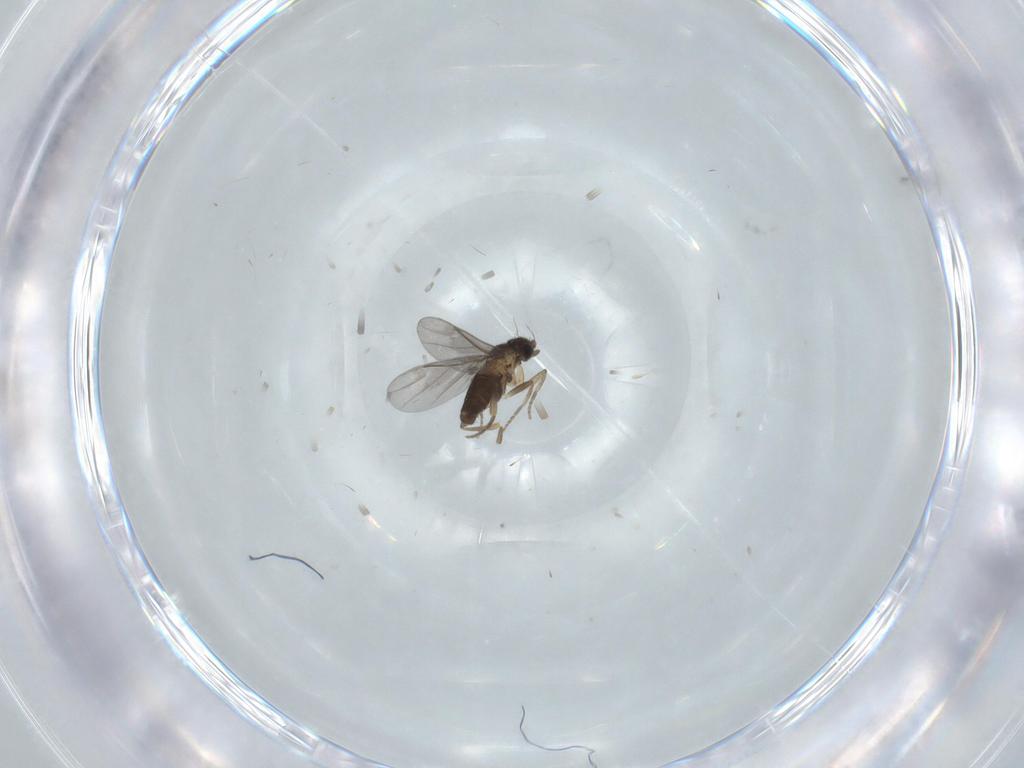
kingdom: Animalia
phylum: Arthropoda
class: Insecta
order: Diptera
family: Chironomidae
